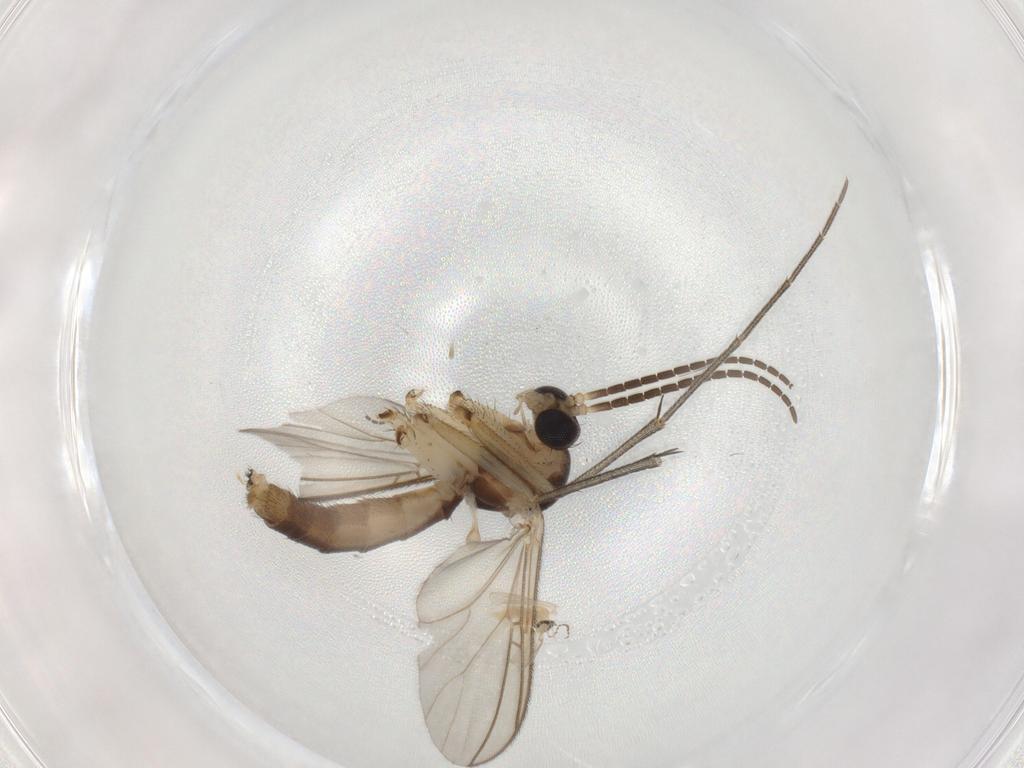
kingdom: Animalia
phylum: Arthropoda
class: Insecta
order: Diptera
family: Mycetophilidae
